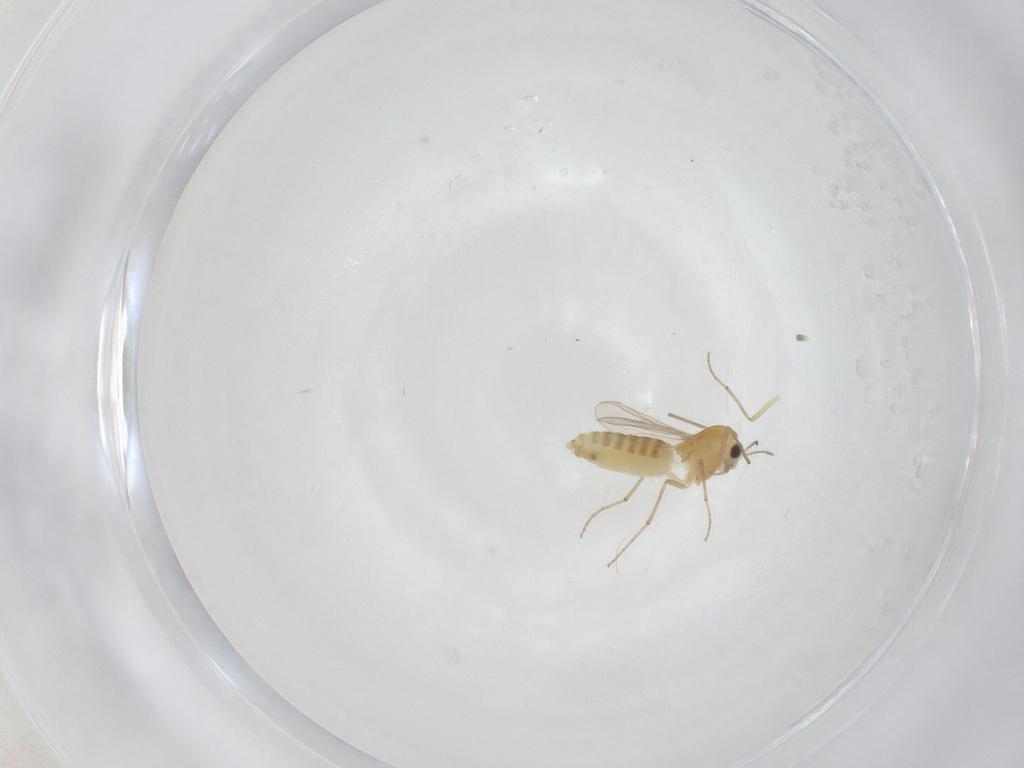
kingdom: Animalia
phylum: Arthropoda
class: Insecta
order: Diptera
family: Chironomidae
